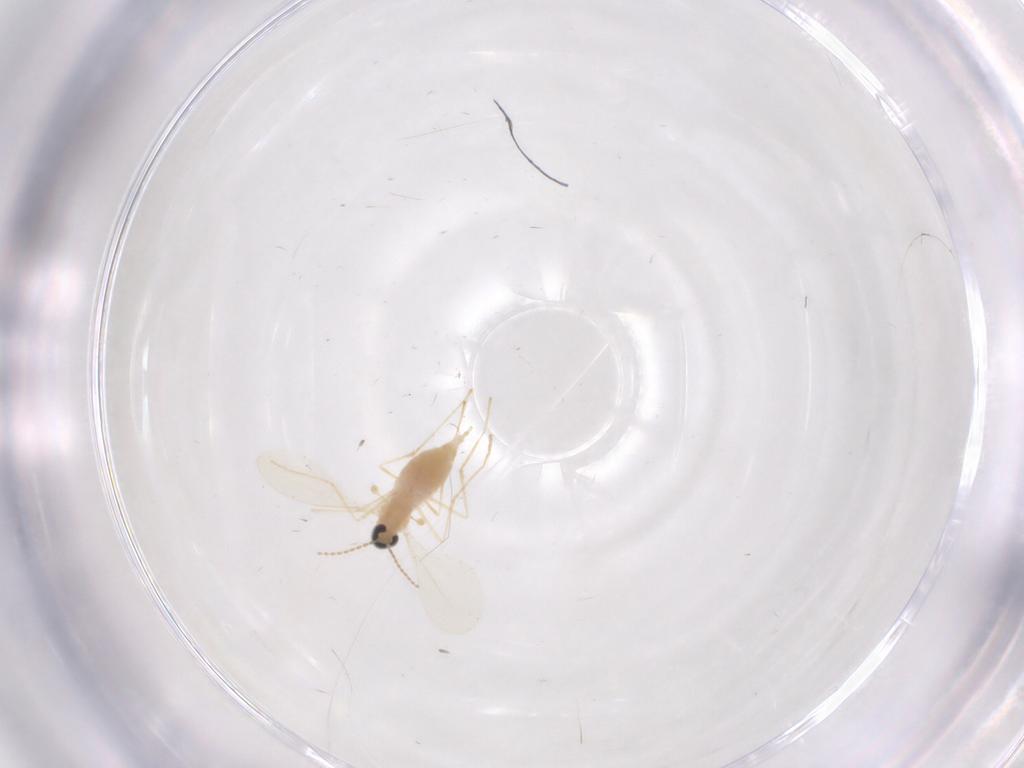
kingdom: Animalia
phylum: Arthropoda
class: Insecta
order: Diptera
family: Cecidomyiidae
